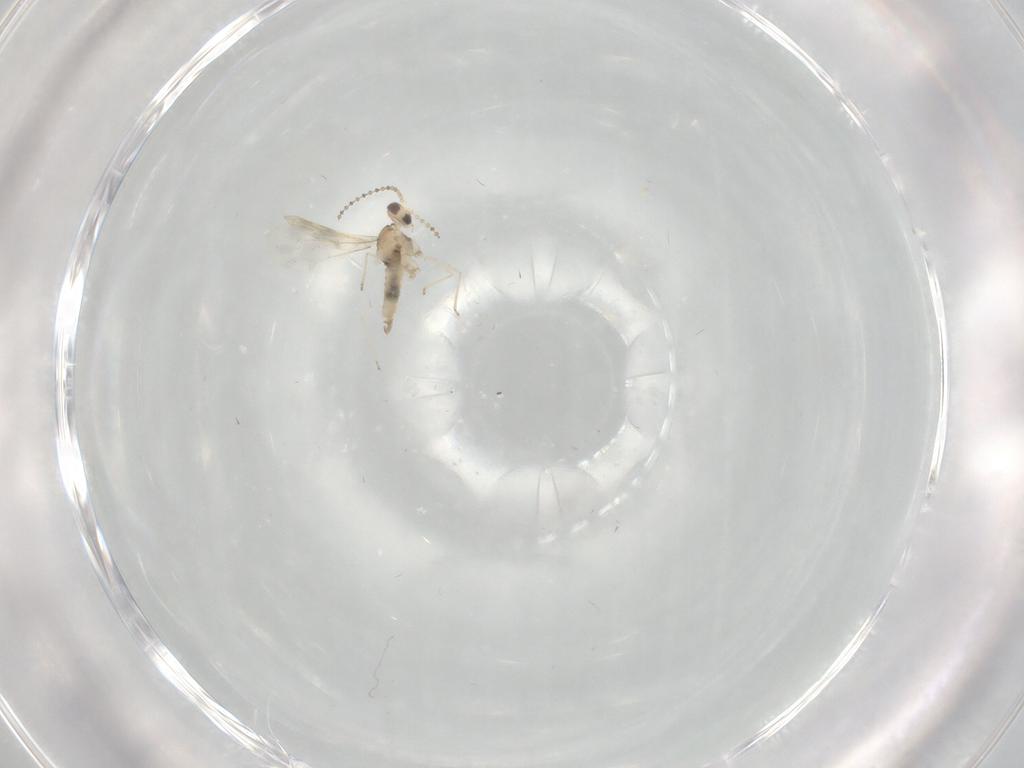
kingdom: Animalia
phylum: Arthropoda
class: Insecta
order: Diptera
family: Cecidomyiidae
